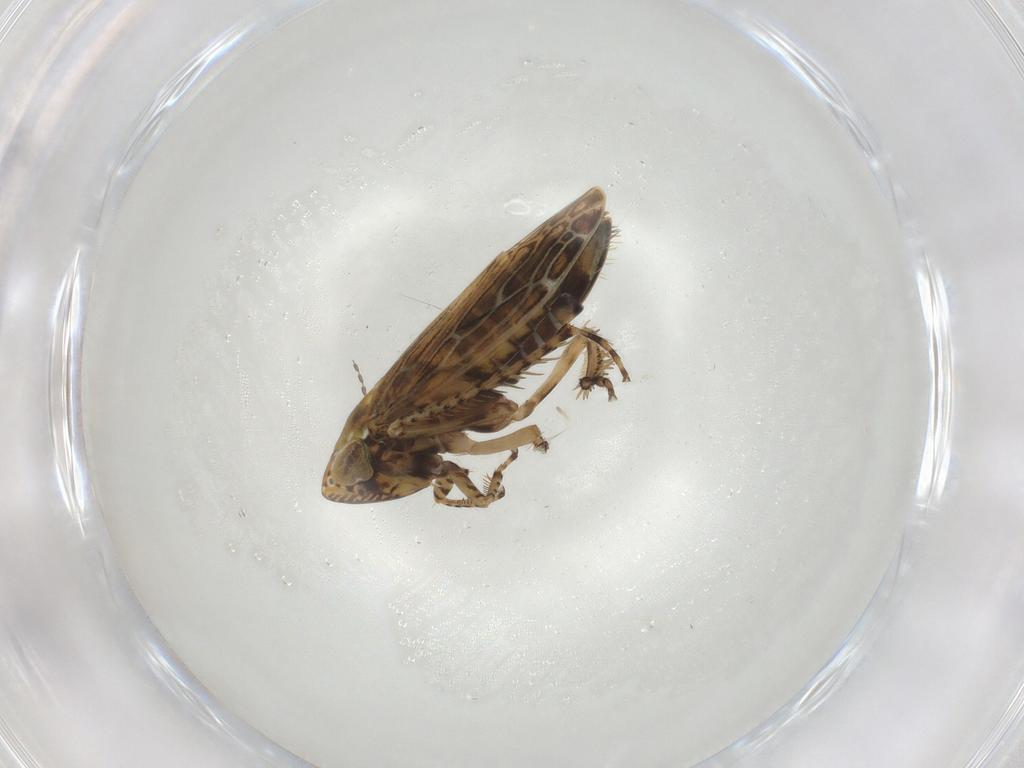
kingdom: Animalia
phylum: Arthropoda
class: Insecta
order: Hemiptera
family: Cicadellidae
